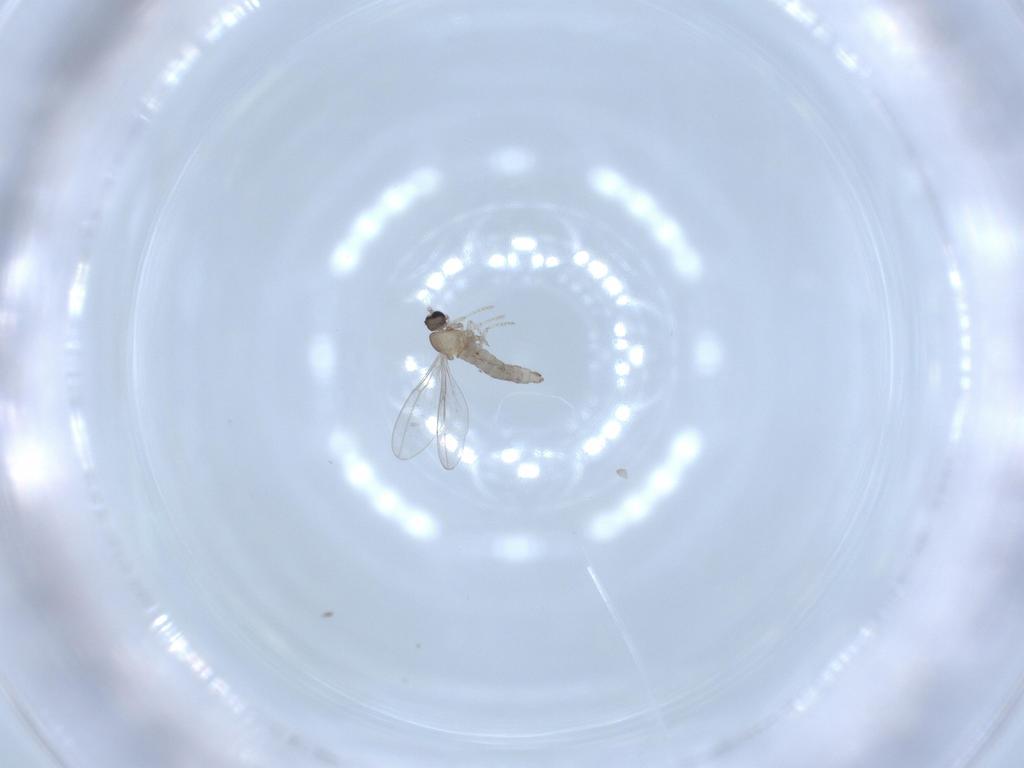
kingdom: Animalia
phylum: Arthropoda
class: Insecta
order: Diptera
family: Cecidomyiidae
